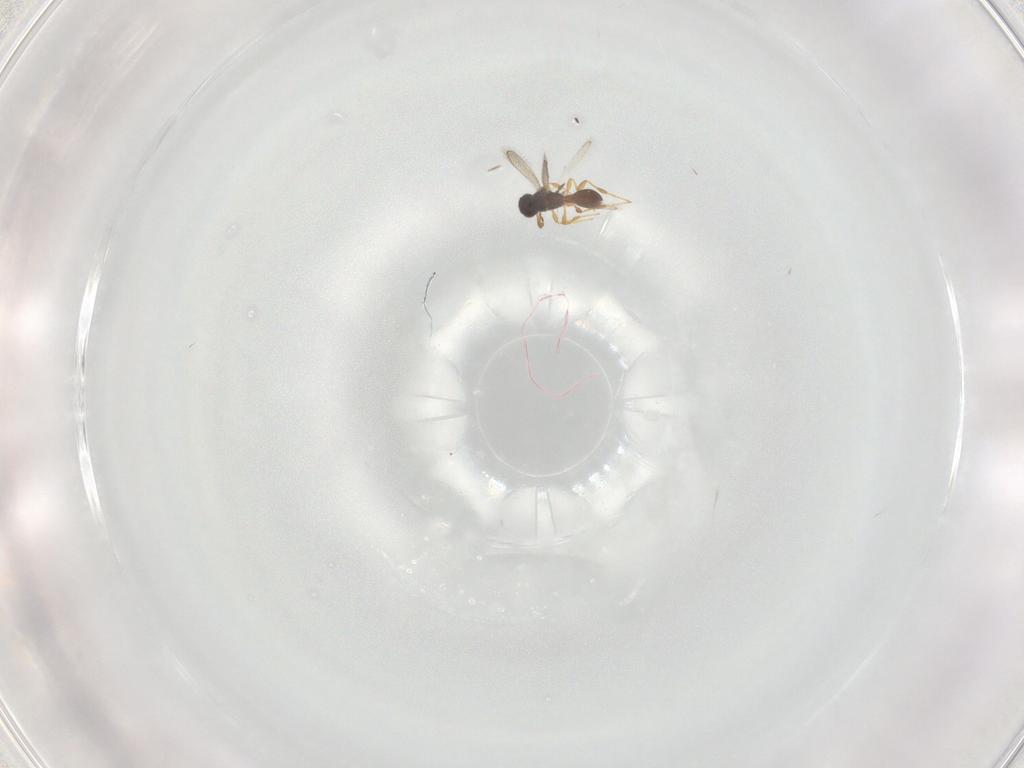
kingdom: Animalia
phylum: Arthropoda
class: Insecta
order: Hymenoptera
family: Platygastridae
